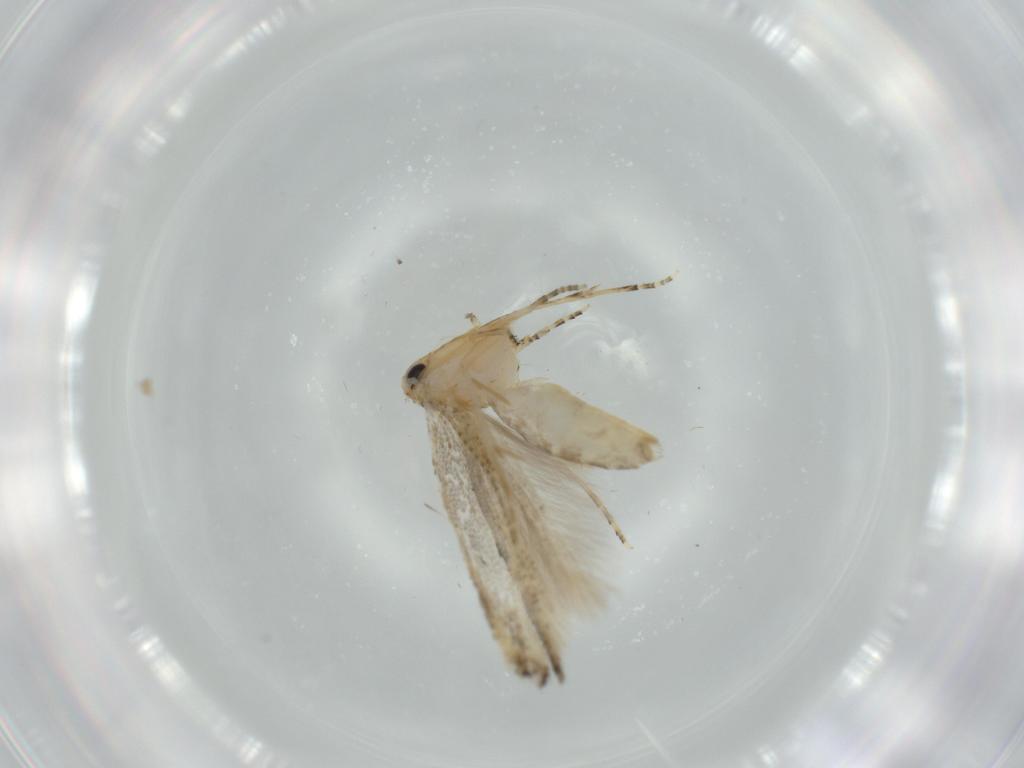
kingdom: Animalia
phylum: Arthropoda
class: Insecta
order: Lepidoptera
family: Bucculatricidae
